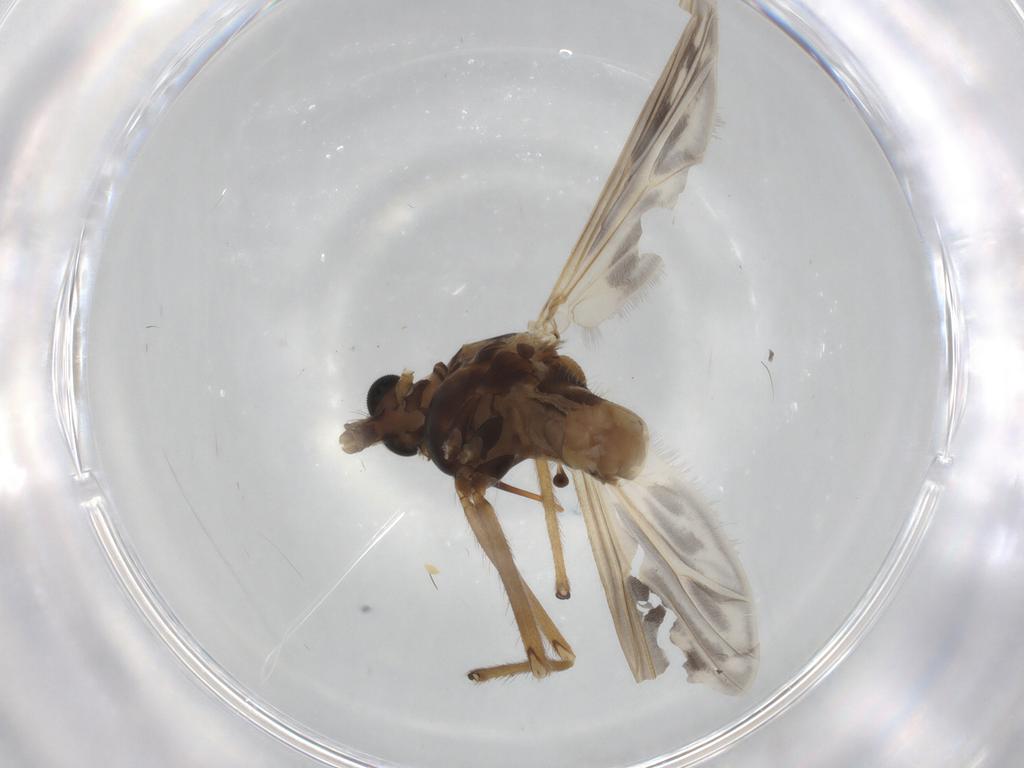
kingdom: Animalia
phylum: Arthropoda
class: Insecta
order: Diptera
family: Chironomidae
